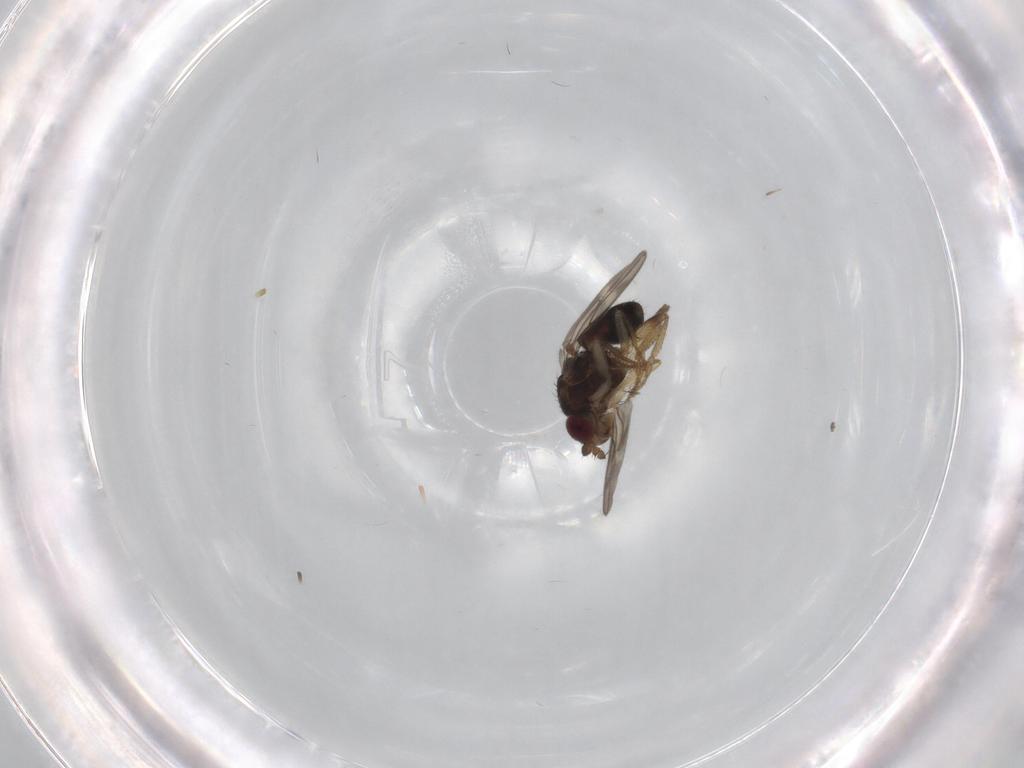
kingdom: Animalia
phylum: Arthropoda
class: Insecta
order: Diptera
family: Sphaeroceridae
